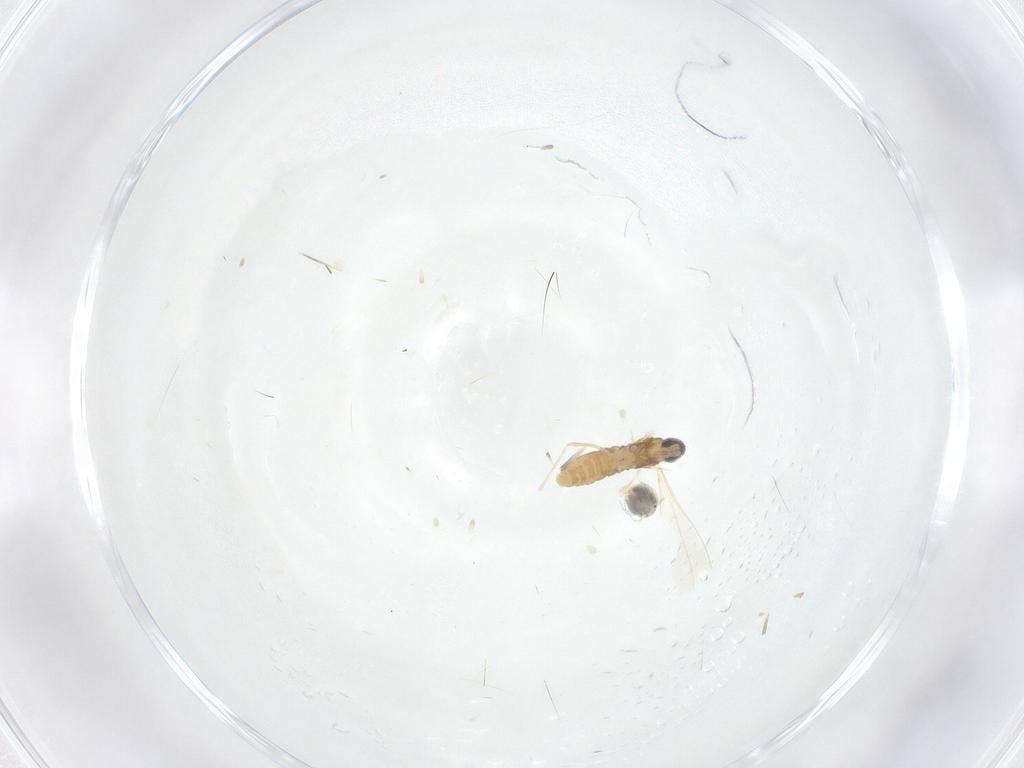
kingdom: Animalia
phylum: Arthropoda
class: Insecta
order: Diptera
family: Cecidomyiidae
